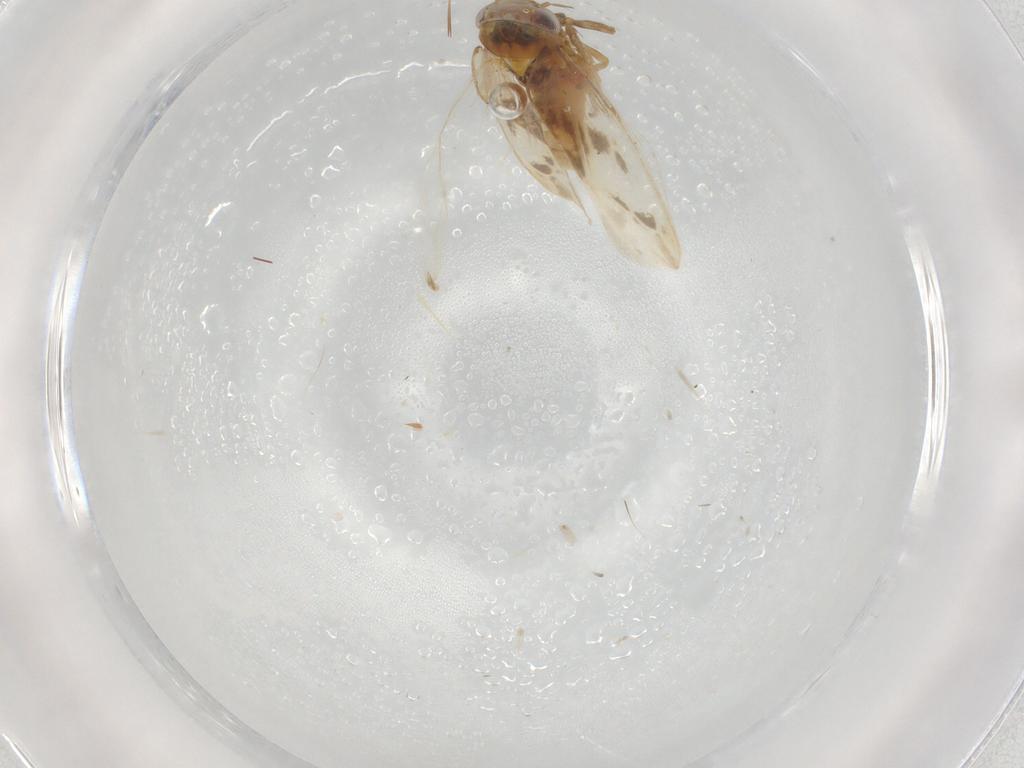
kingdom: Animalia
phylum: Arthropoda
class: Insecta
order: Hemiptera
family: Cicadellidae
